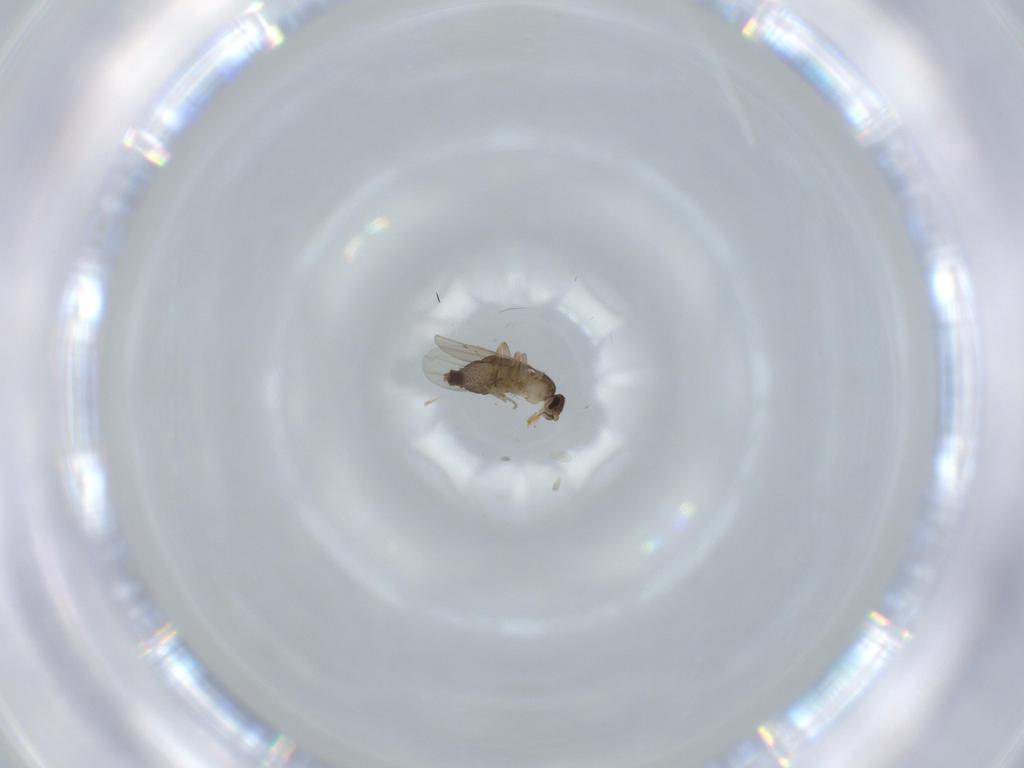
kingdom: Animalia
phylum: Arthropoda
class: Insecta
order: Diptera
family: Phoridae
